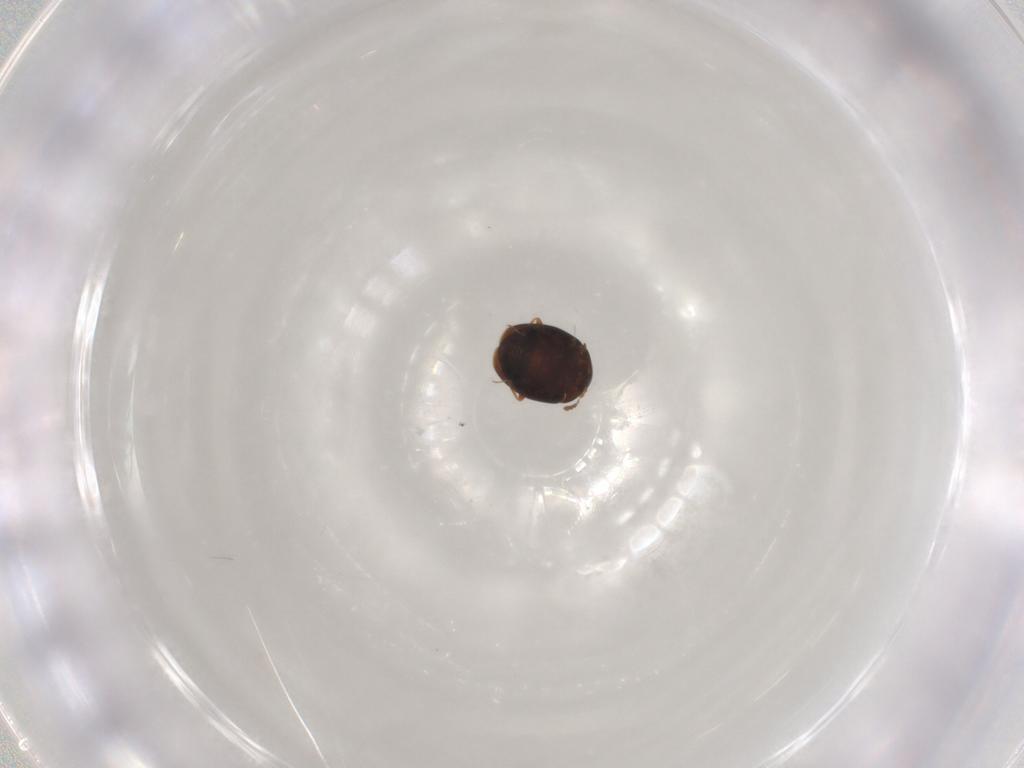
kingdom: Animalia
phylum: Arthropoda
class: Insecta
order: Coleoptera
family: Corylophidae
